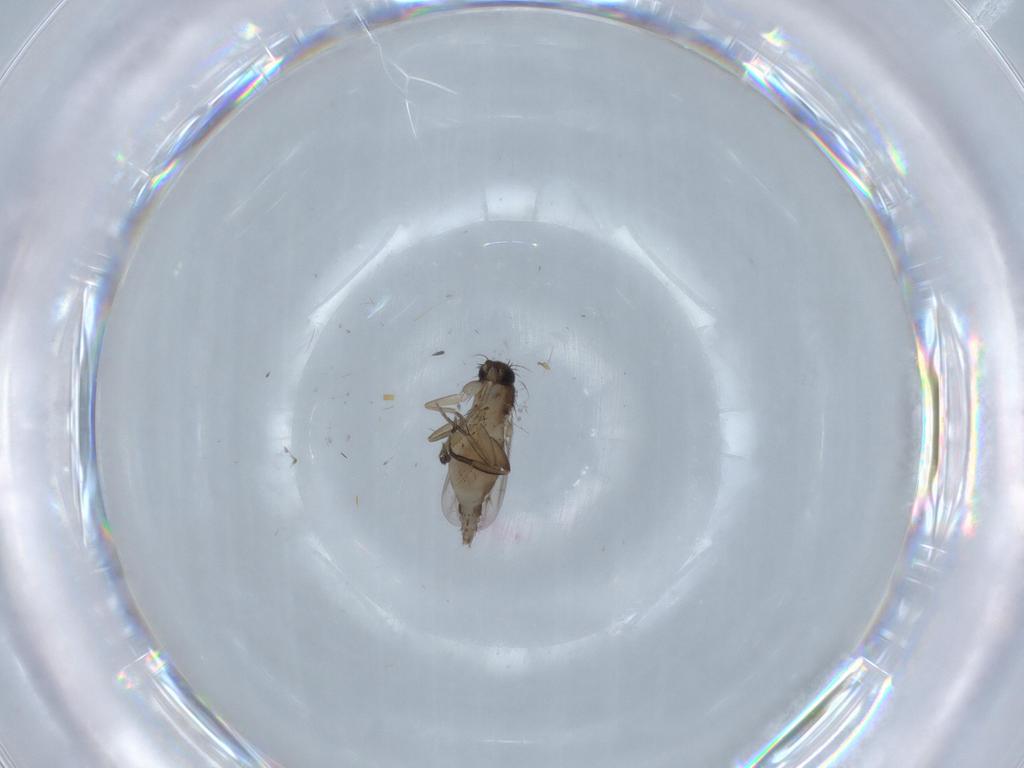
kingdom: Animalia
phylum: Arthropoda
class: Insecta
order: Diptera
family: Phoridae
